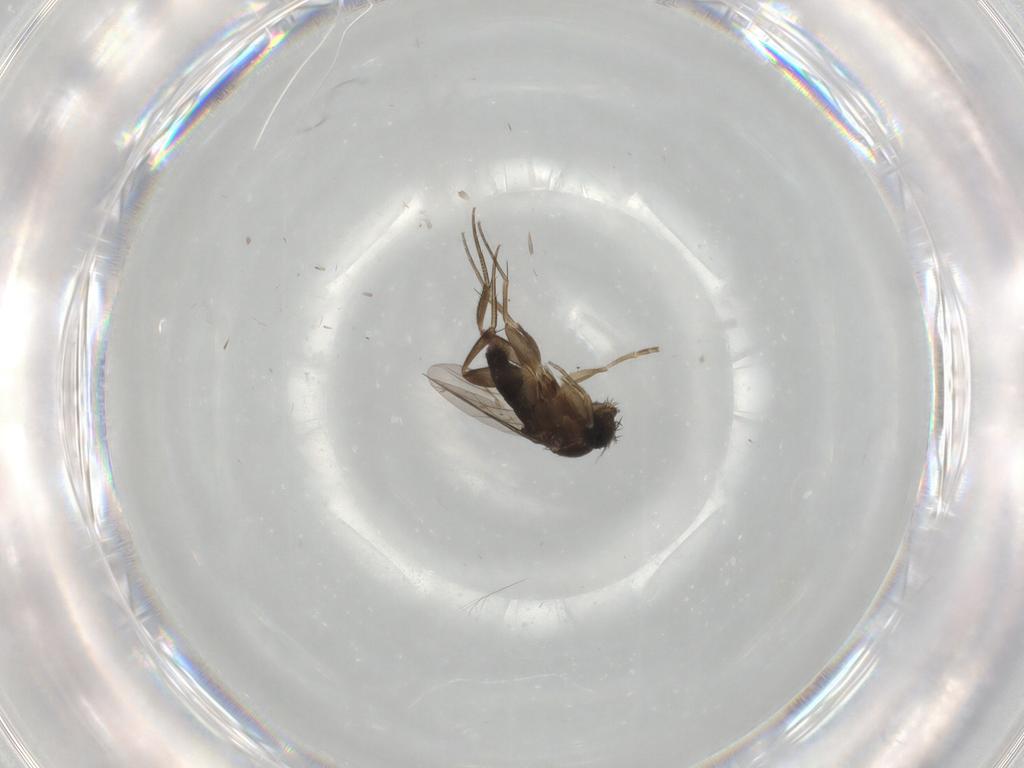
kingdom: Animalia
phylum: Arthropoda
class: Insecta
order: Diptera
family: Phoridae
